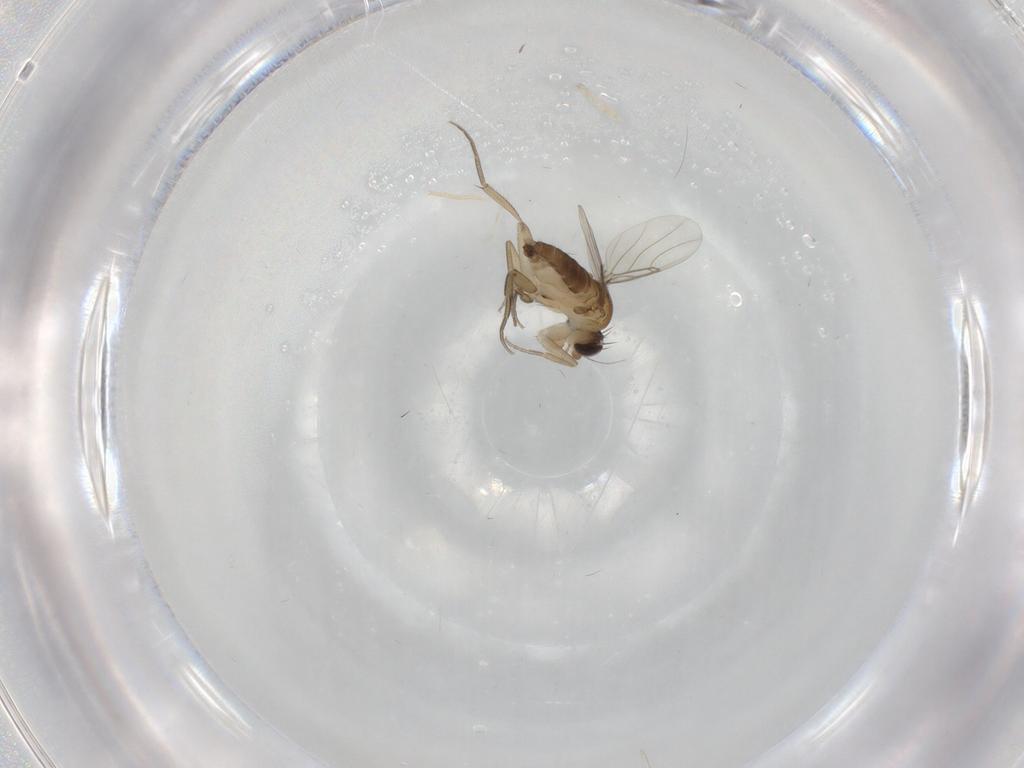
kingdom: Animalia
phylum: Arthropoda
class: Insecta
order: Diptera
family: Phoridae
